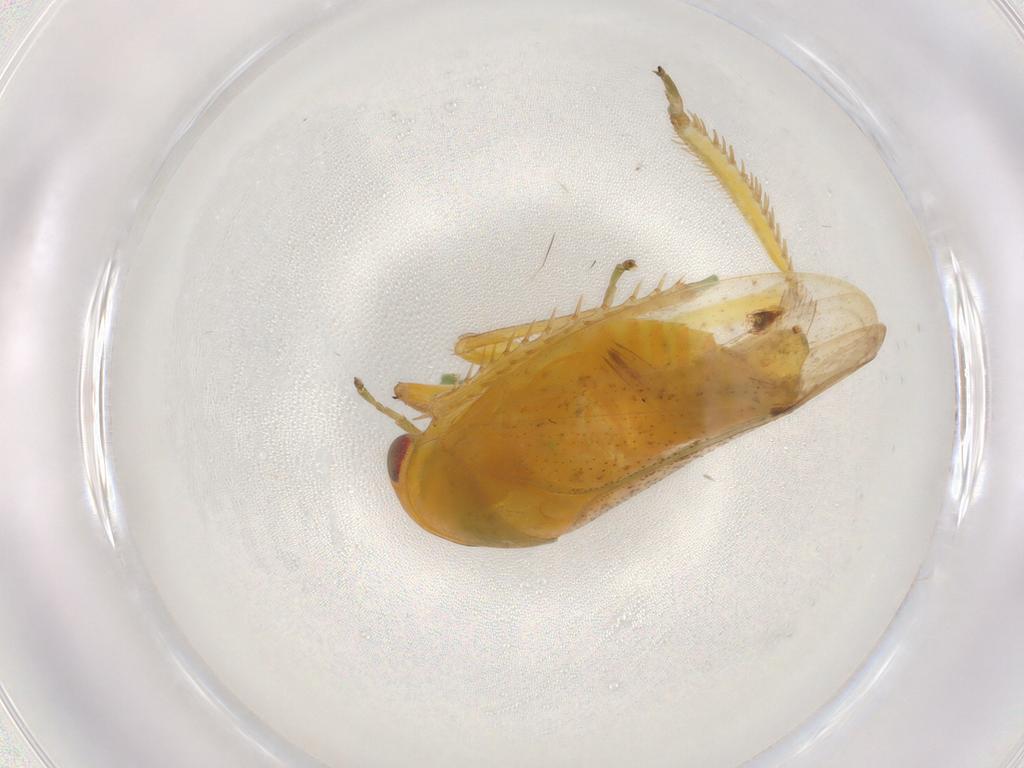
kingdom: Animalia
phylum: Arthropoda
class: Insecta
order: Hemiptera
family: Cicadellidae
